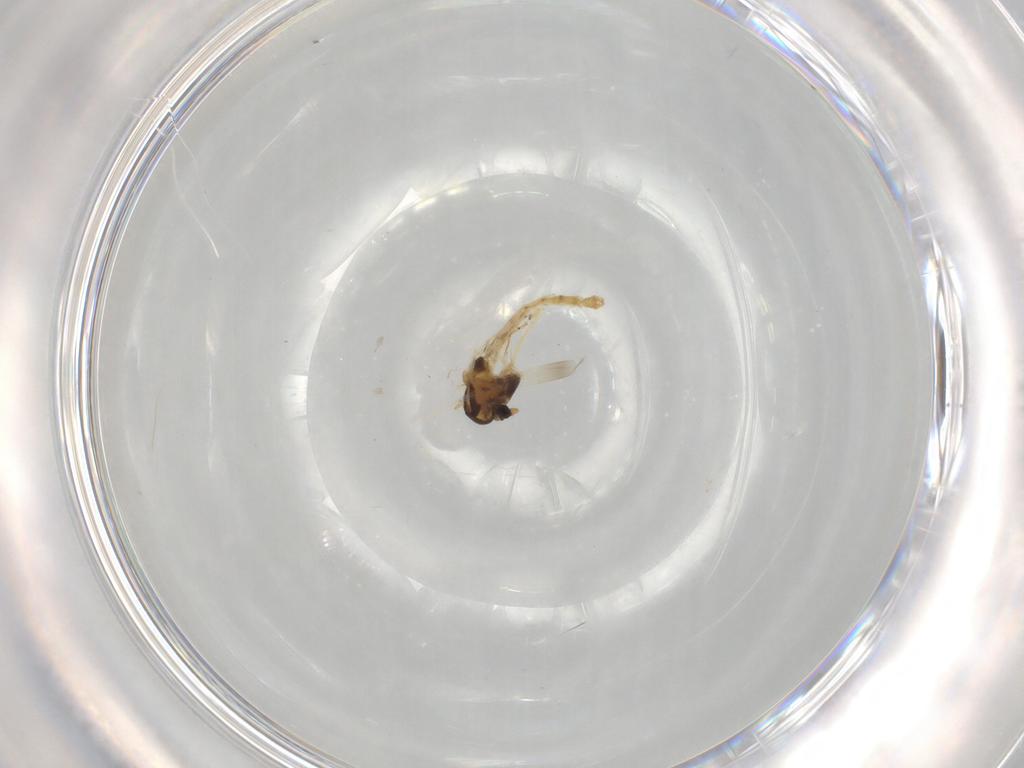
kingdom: Animalia
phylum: Arthropoda
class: Insecta
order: Diptera
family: Chironomidae
